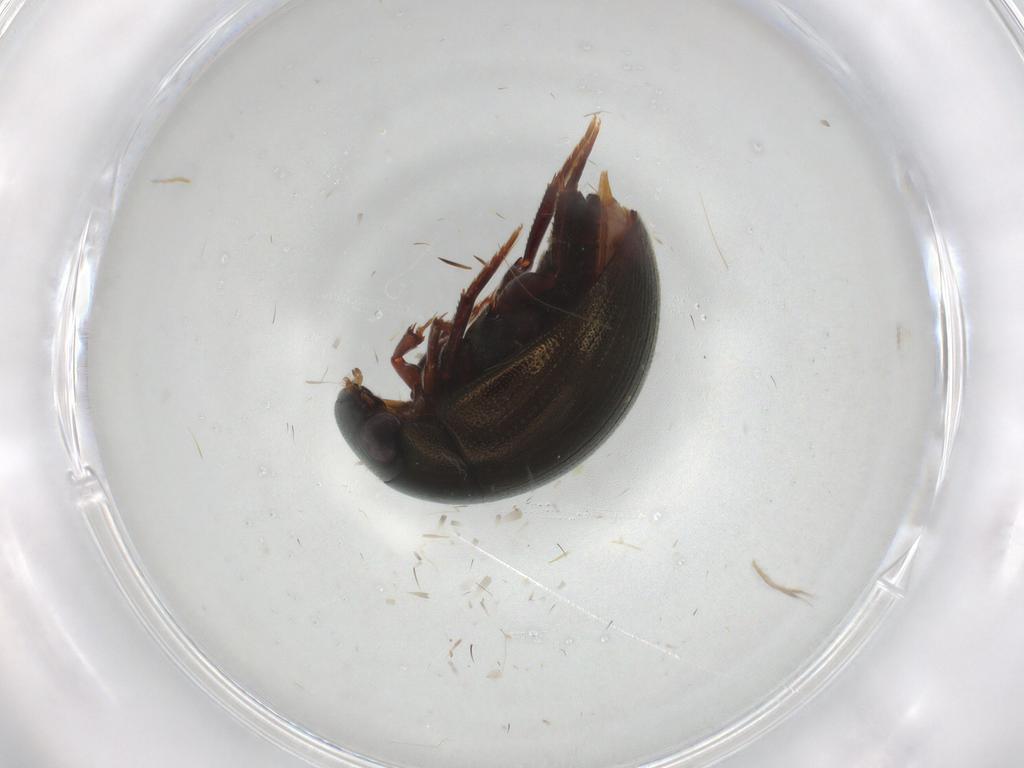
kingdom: Animalia
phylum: Arthropoda
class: Insecta
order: Coleoptera
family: Hydrophilidae
